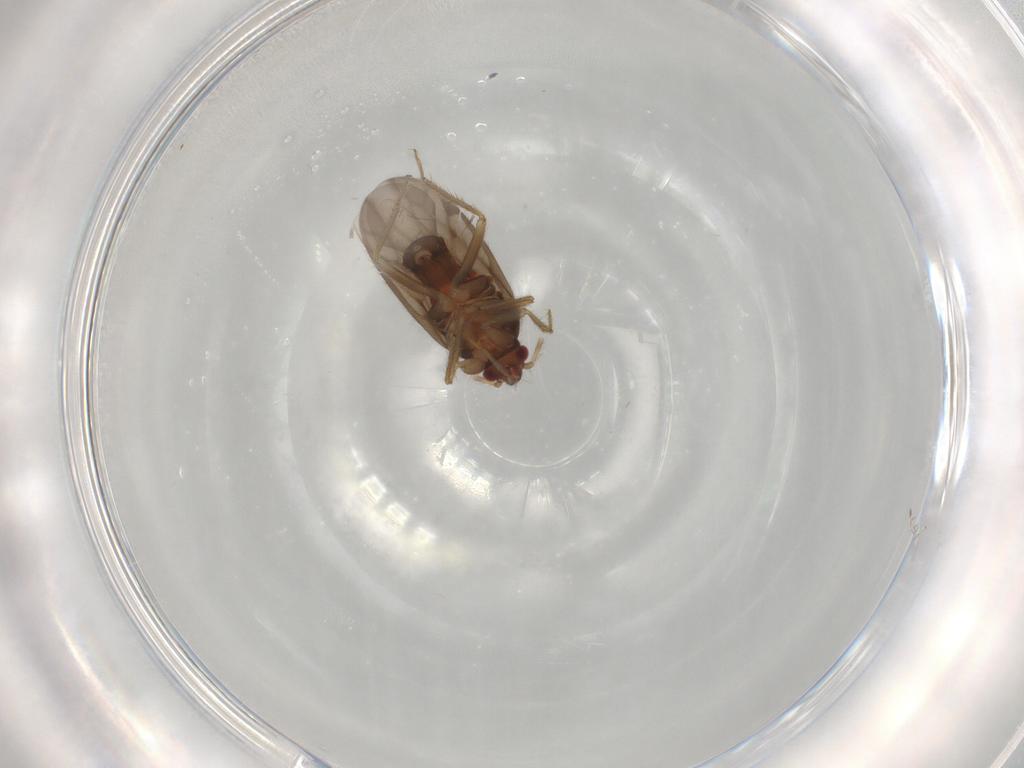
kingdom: Animalia
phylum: Arthropoda
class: Insecta
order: Hemiptera
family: Ceratocombidae
